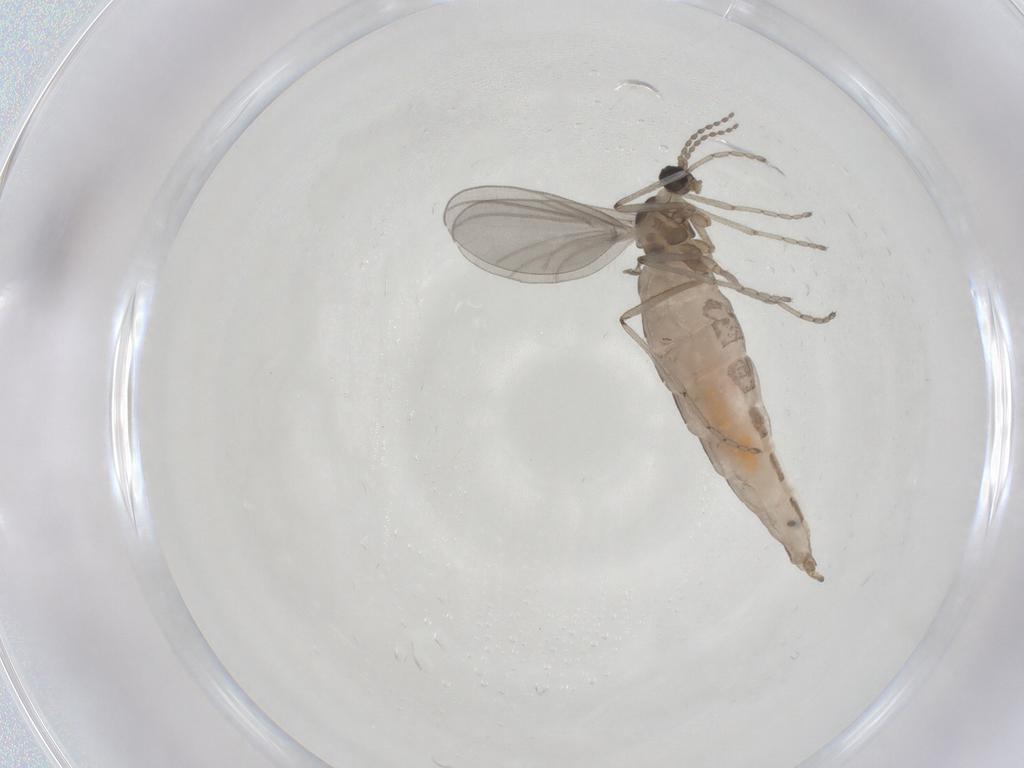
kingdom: Animalia
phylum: Arthropoda
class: Insecta
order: Diptera
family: Cecidomyiidae
